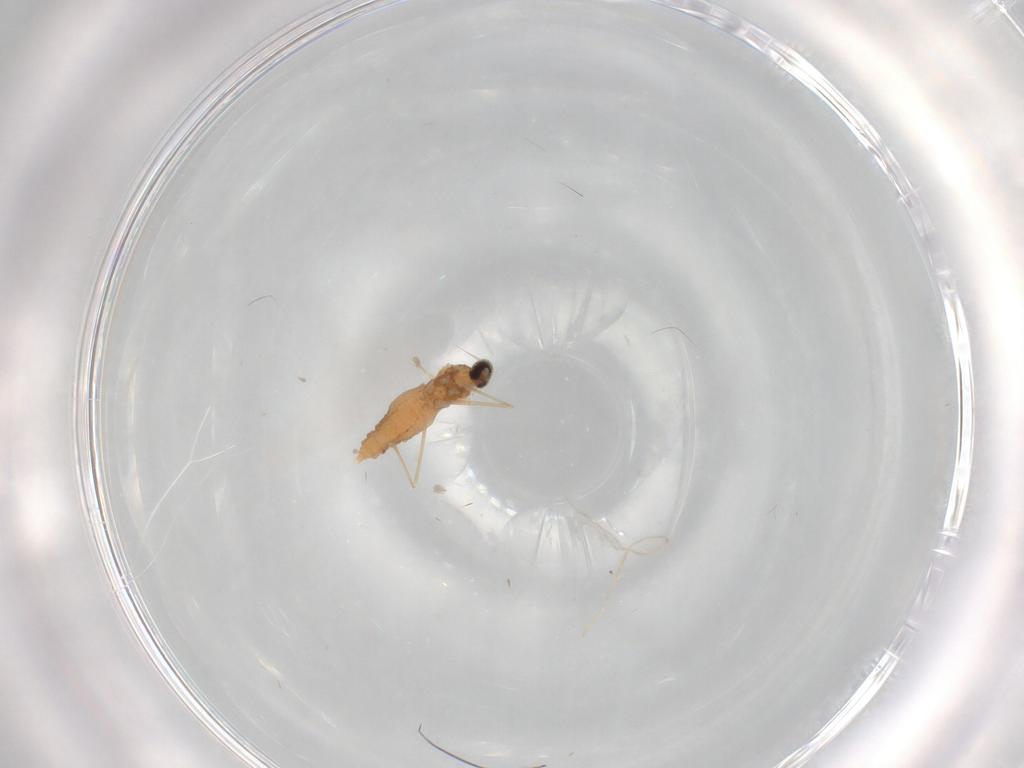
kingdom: Animalia
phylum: Arthropoda
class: Insecta
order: Diptera
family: Cecidomyiidae
